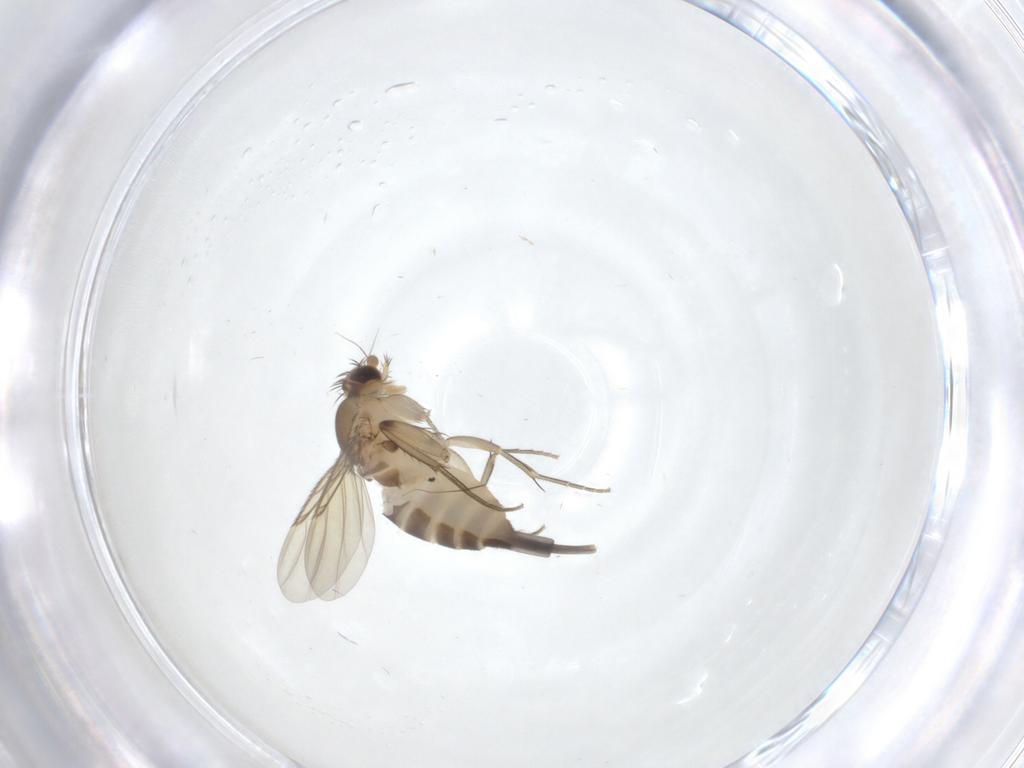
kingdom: Animalia
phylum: Arthropoda
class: Insecta
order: Diptera
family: Phoridae
